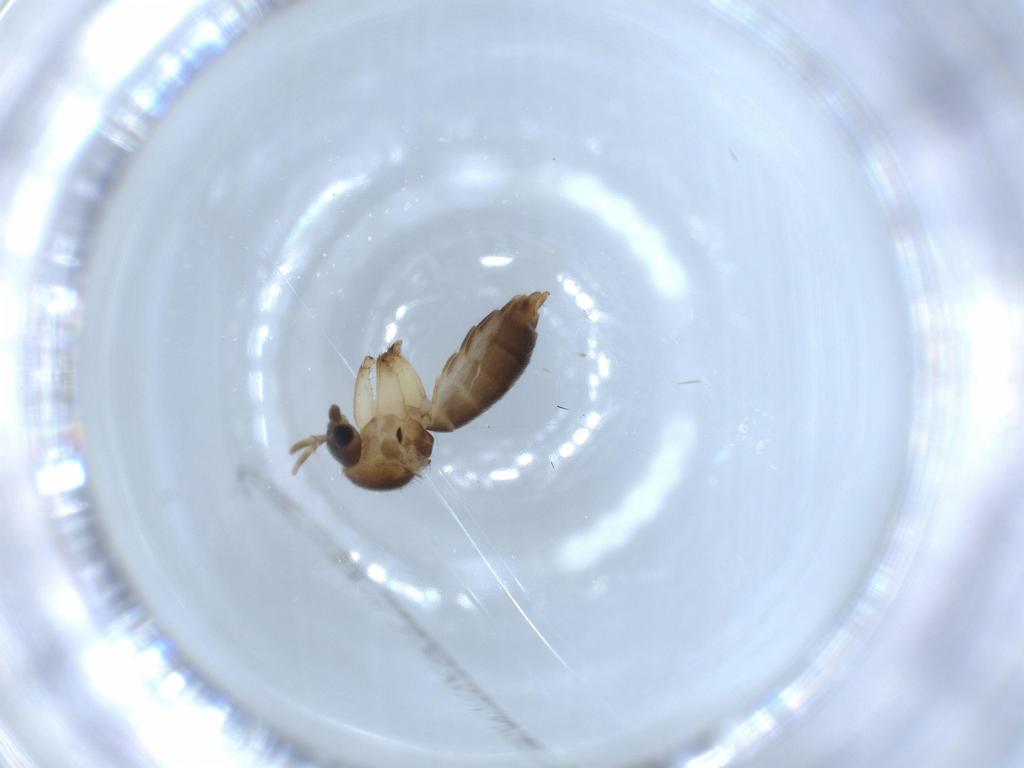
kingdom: Animalia
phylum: Arthropoda
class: Insecta
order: Diptera
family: Mycetophilidae
